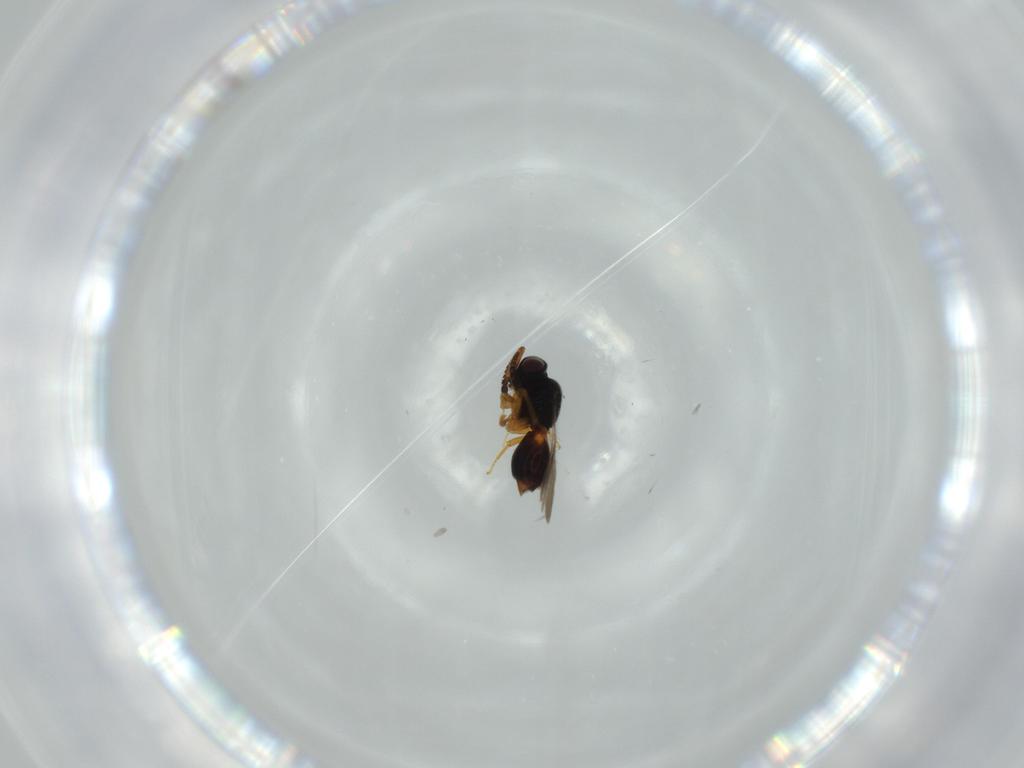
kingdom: Animalia
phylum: Arthropoda
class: Insecta
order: Hymenoptera
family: Ceraphronidae
